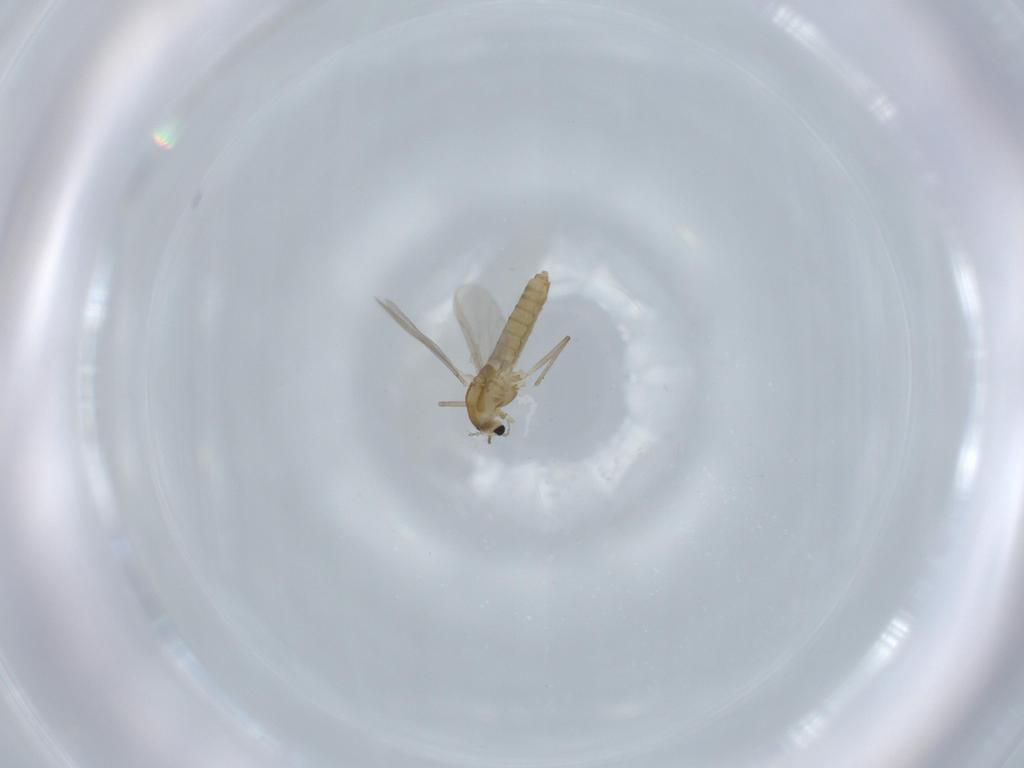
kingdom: Animalia
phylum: Arthropoda
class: Insecta
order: Diptera
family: Chironomidae
